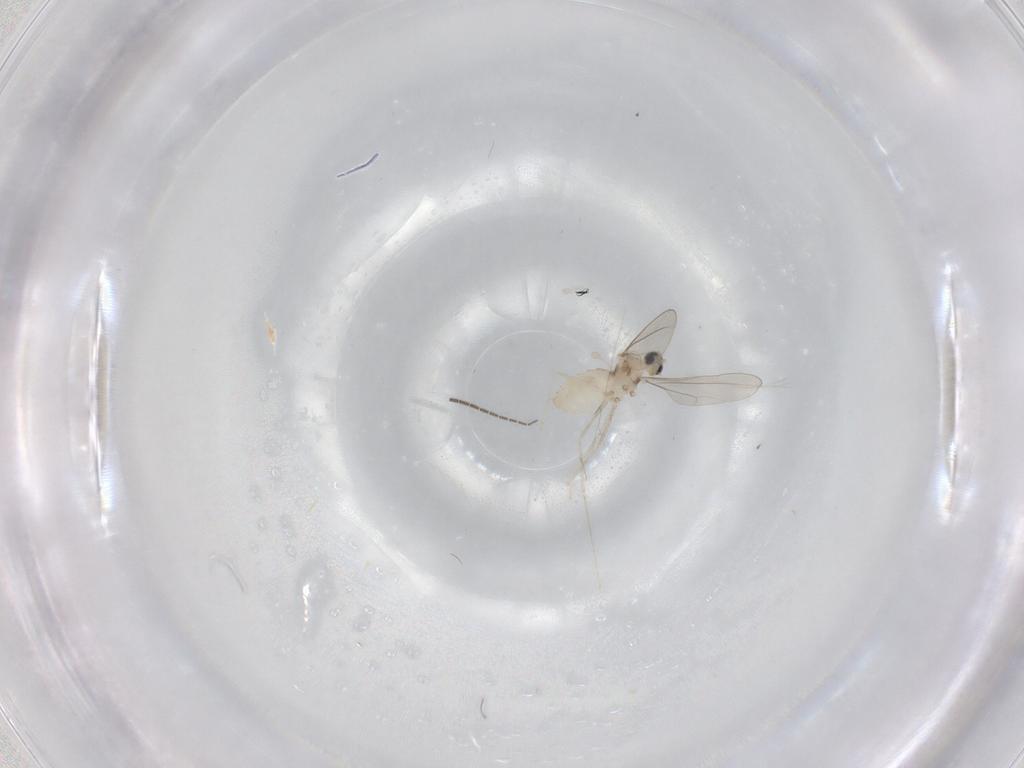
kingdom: Animalia
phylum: Arthropoda
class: Insecta
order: Diptera
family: Cecidomyiidae
